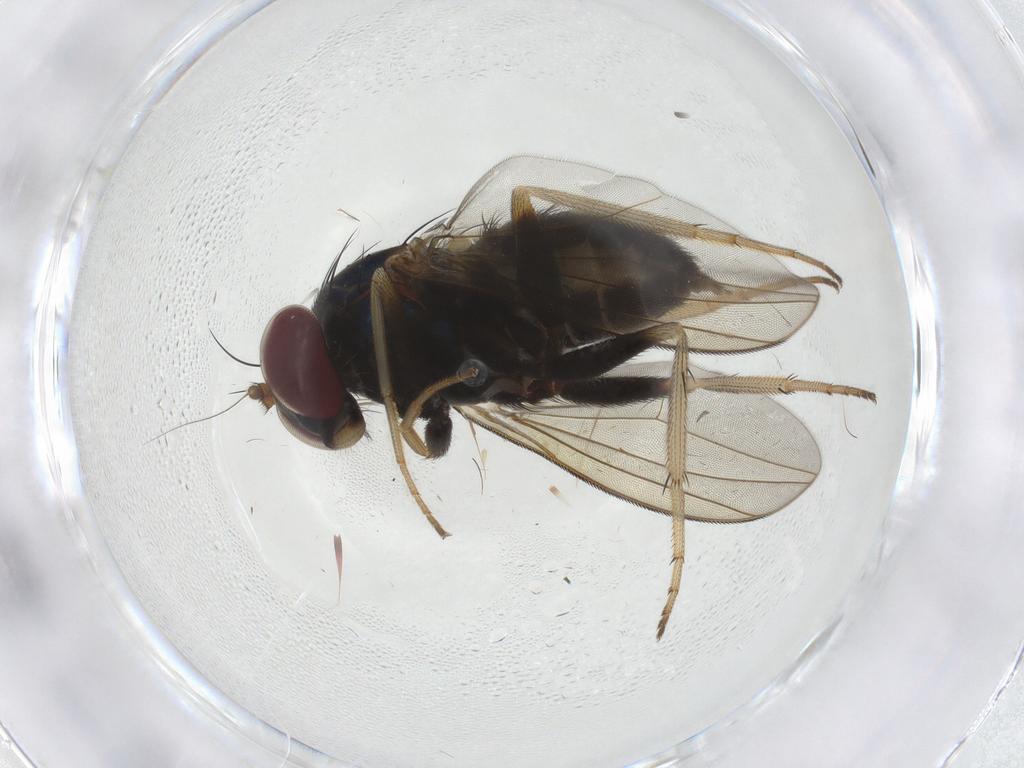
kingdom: Animalia
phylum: Arthropoda
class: Insecta
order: Diptera
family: Dolichopodidae
